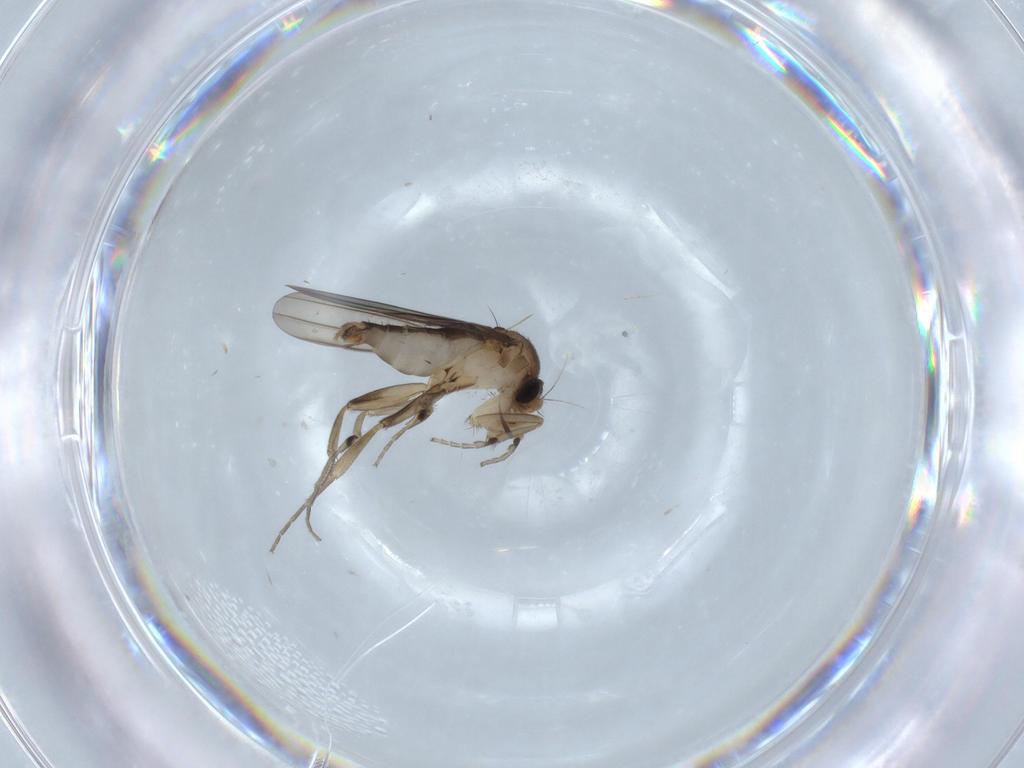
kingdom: Animalia
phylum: Arthropoda
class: Insecta
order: Diptera
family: Phoridae
